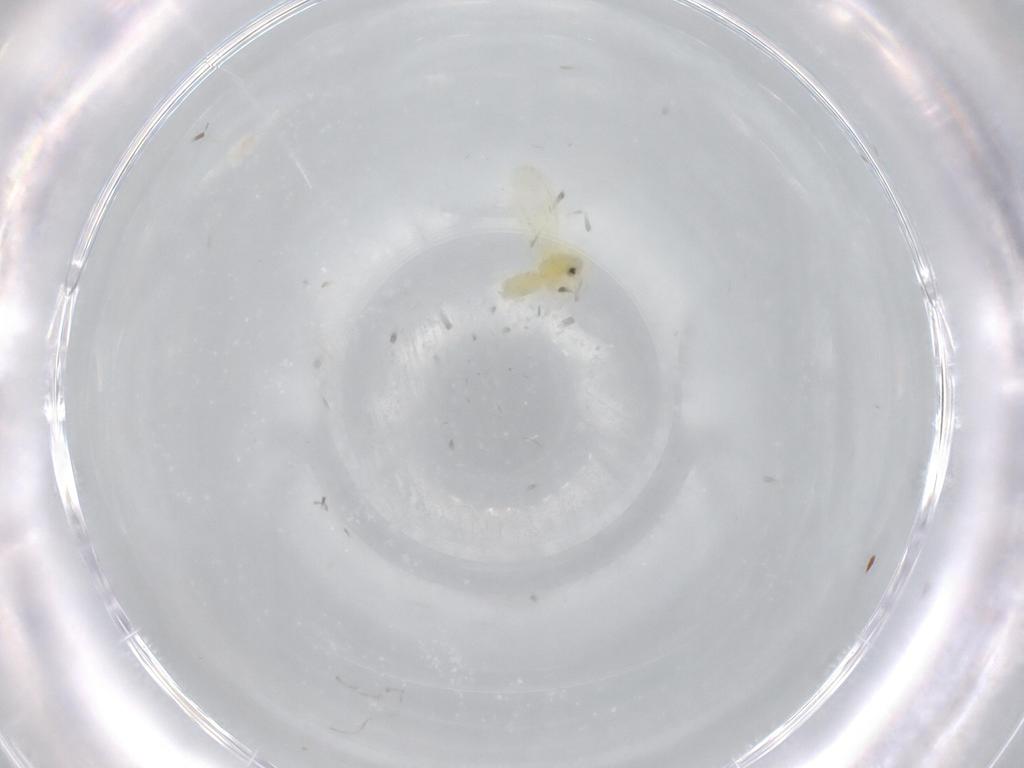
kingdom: Animalia
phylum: Arthropoda
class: Insecta
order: Hemiptera
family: Aleyrodidae
